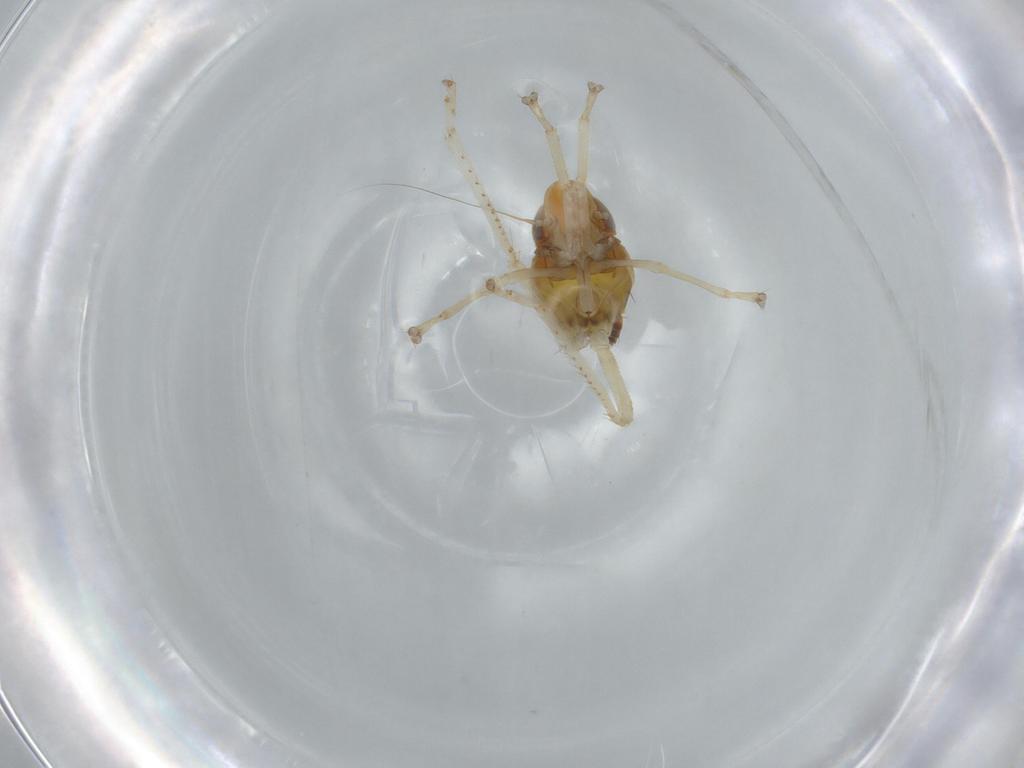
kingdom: Animalia
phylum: Arthropoda
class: Insecta
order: Hemiptera
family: Cicadellidae
